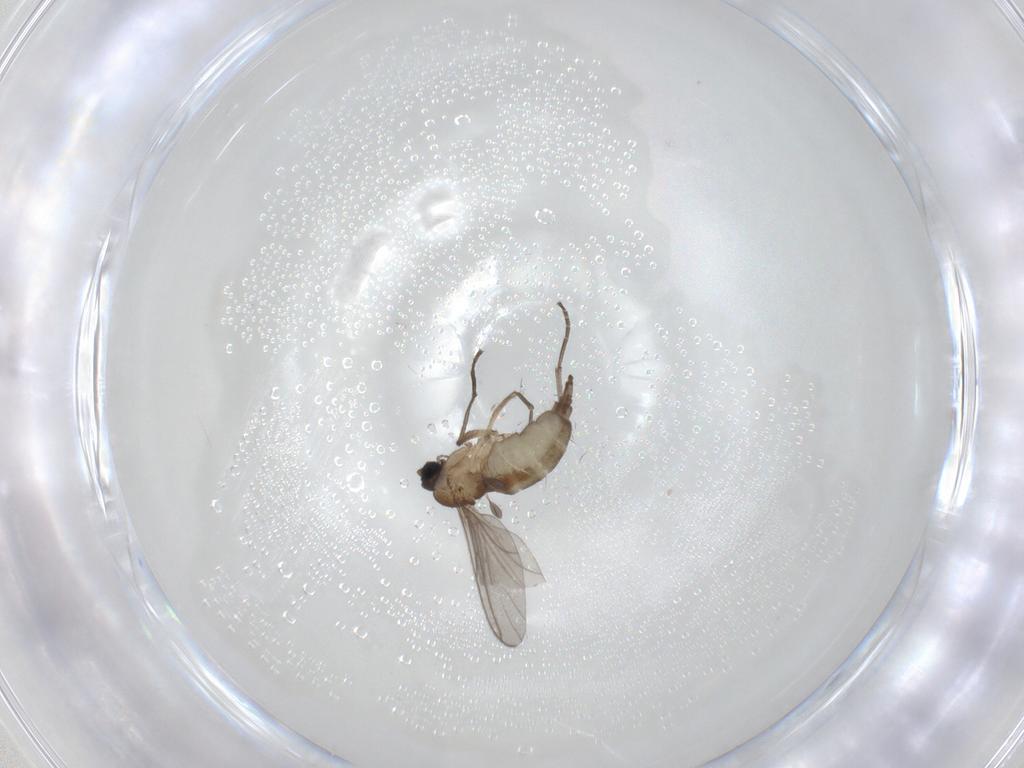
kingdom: Animalia
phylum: Arthropoda
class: Insecta
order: Diptera
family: Sciaridae
